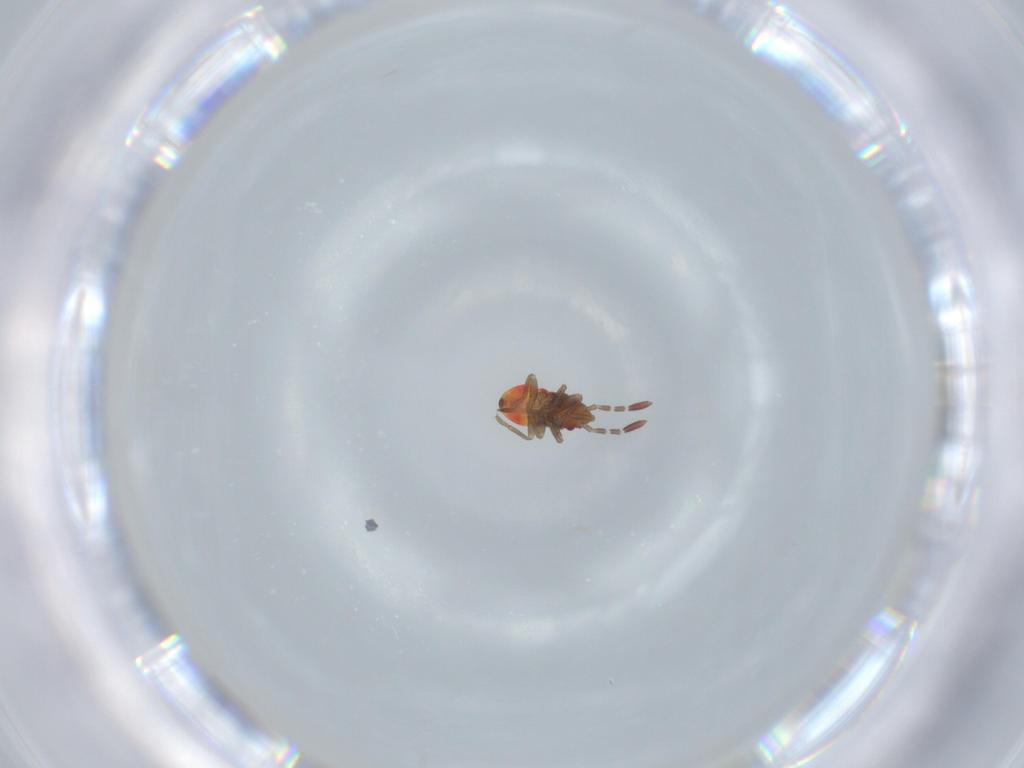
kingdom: Animalia
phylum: Arthropoda
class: Insecta
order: Hemiptera
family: Rhyparochromidae
